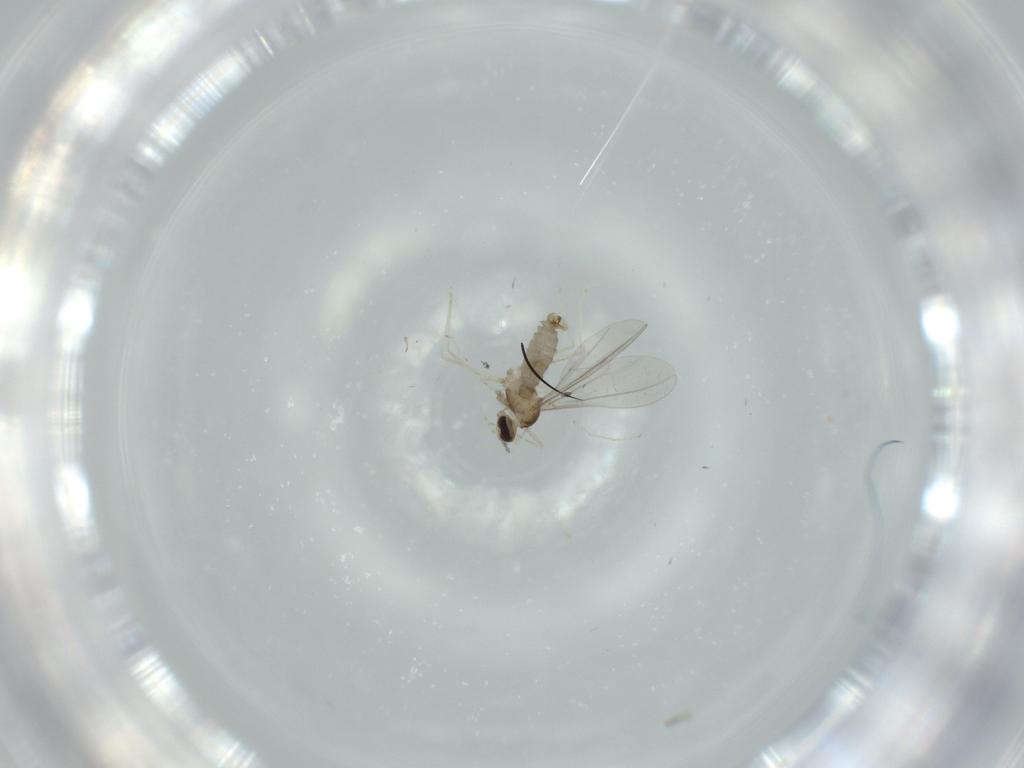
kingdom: Animalia
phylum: Arthropoda
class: Insecta
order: Diptera
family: Cecidomyiidae
